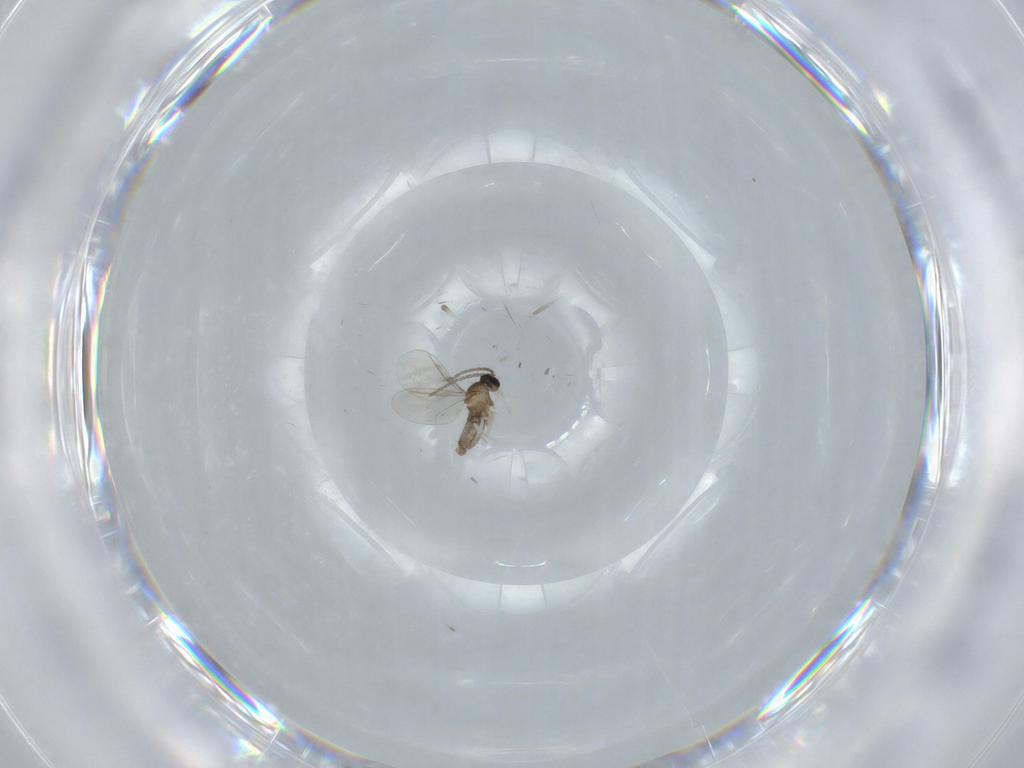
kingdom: Animalia
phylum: Arthropoda
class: Insecta
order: Diptera
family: Cecidomyiidae
